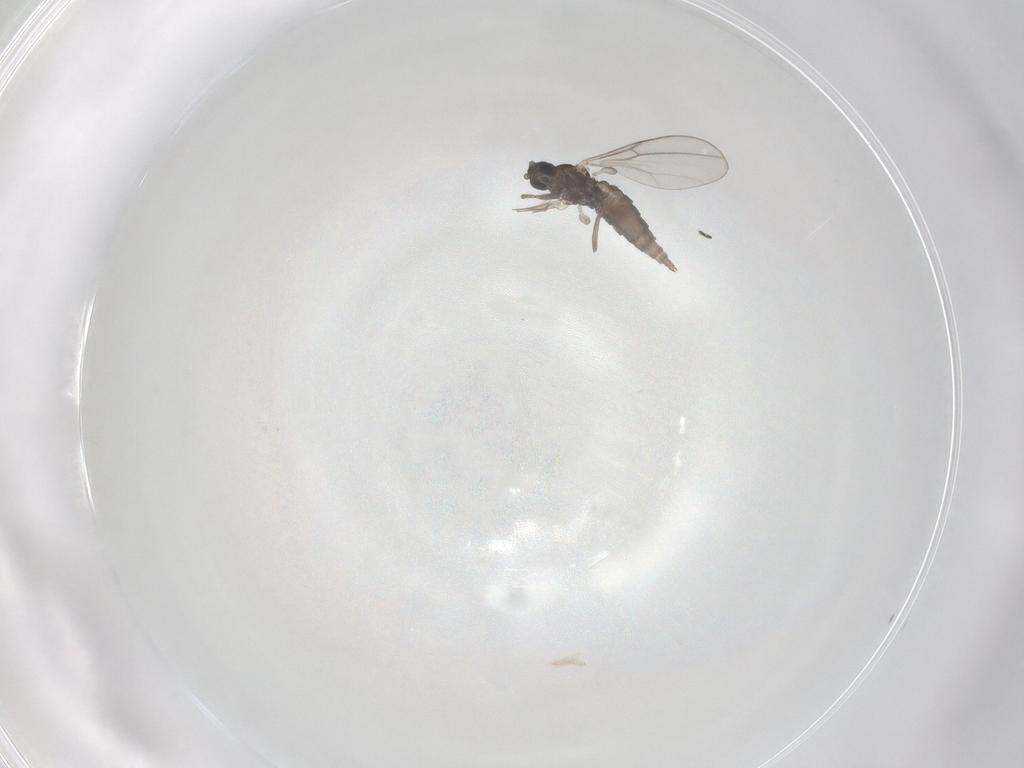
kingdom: Animalia
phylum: Arthropoda
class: Insecta
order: Diptera
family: Cecidomyiidae
